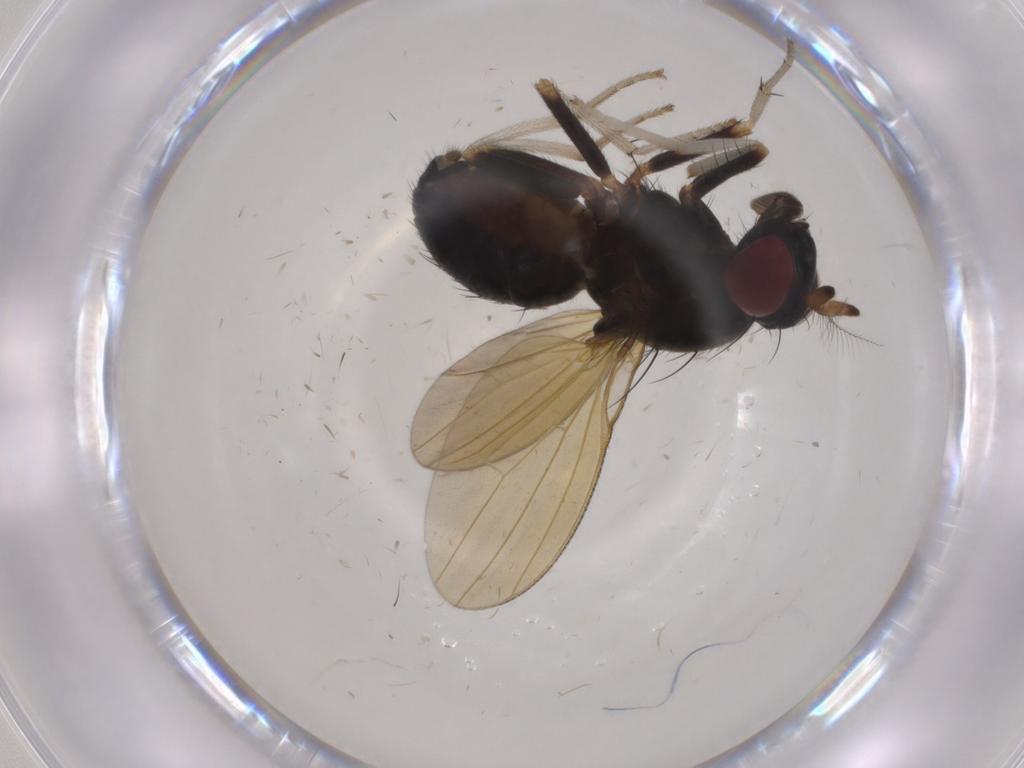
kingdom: Animalia
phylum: Arthropoda
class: Insecta
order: Diptera
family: Lauxaniidae
